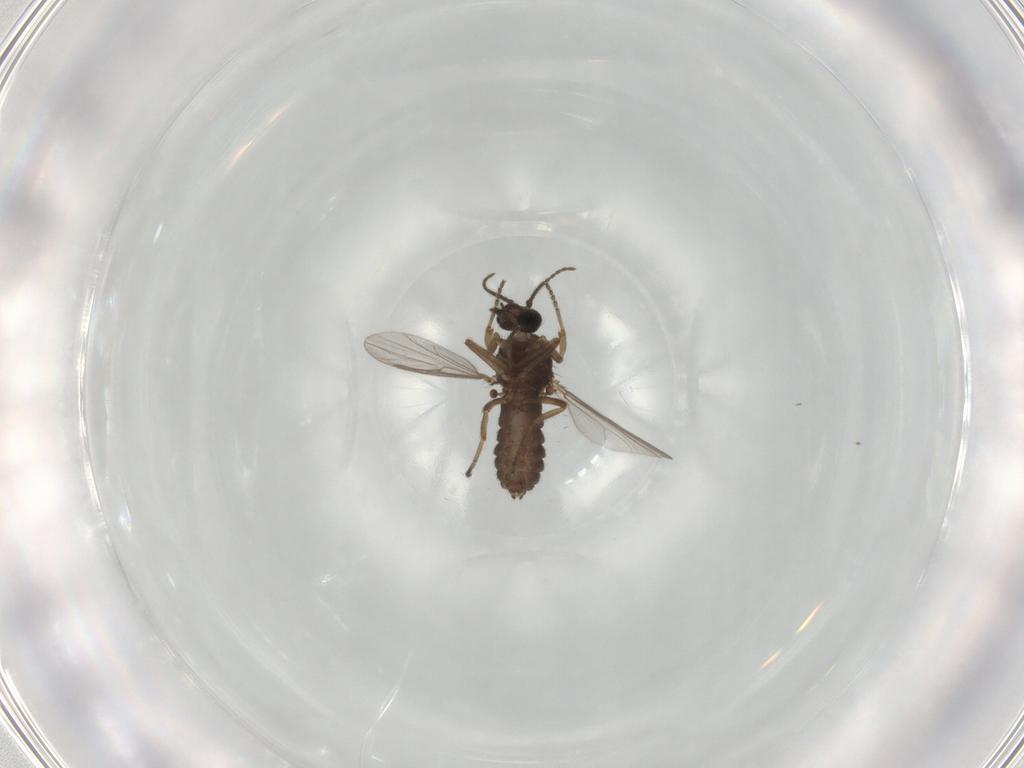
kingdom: Animalia
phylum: Arthropoda
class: Insecta
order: Diptera
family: Ceratopogonidae
